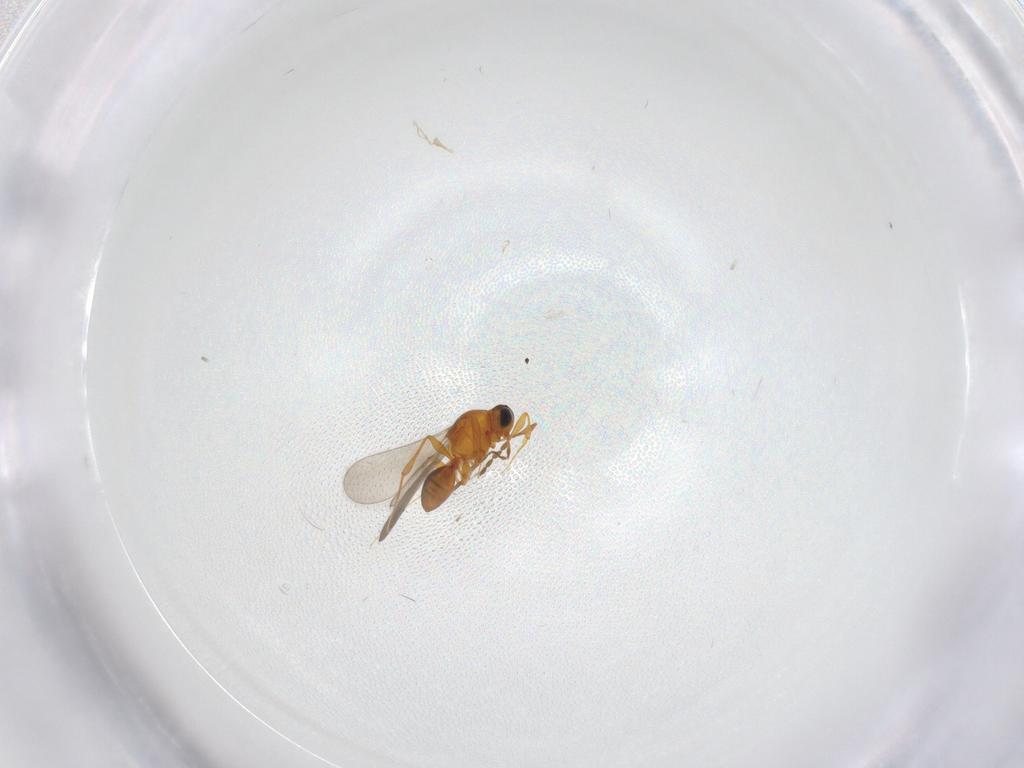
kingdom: Animalia
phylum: Arthropoda
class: Insecta
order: Hymenoptera
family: Platygastridae
